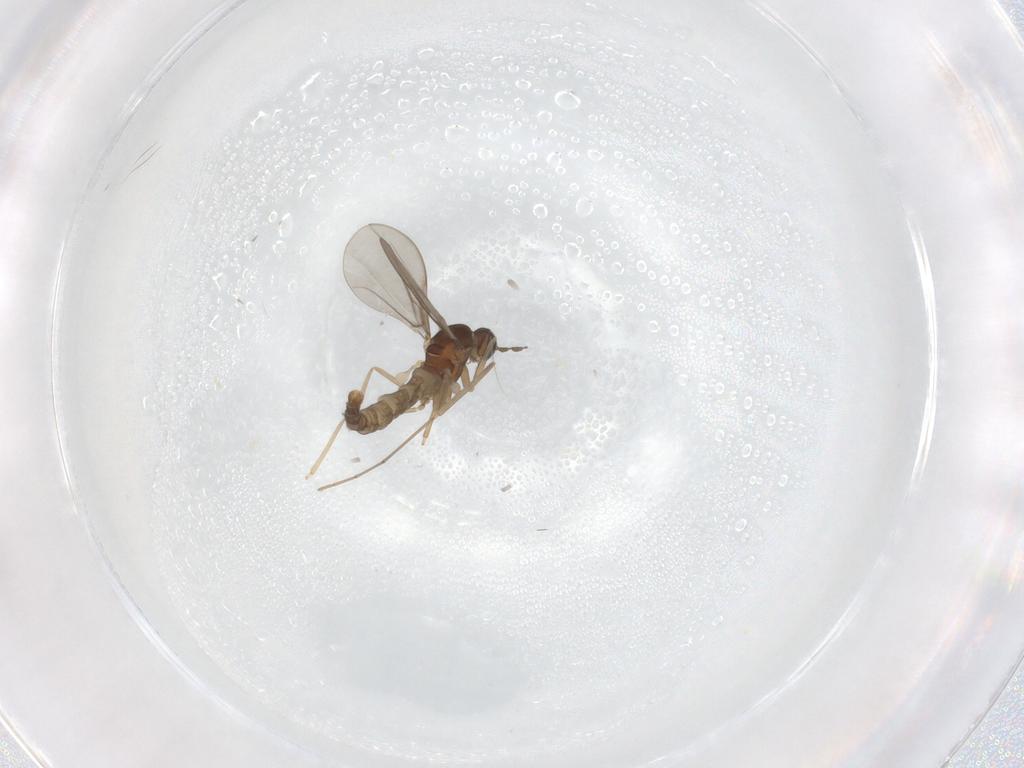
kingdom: Animalia
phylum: Arthropoda
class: Insecta
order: Diptera
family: Cecidomyiidae
